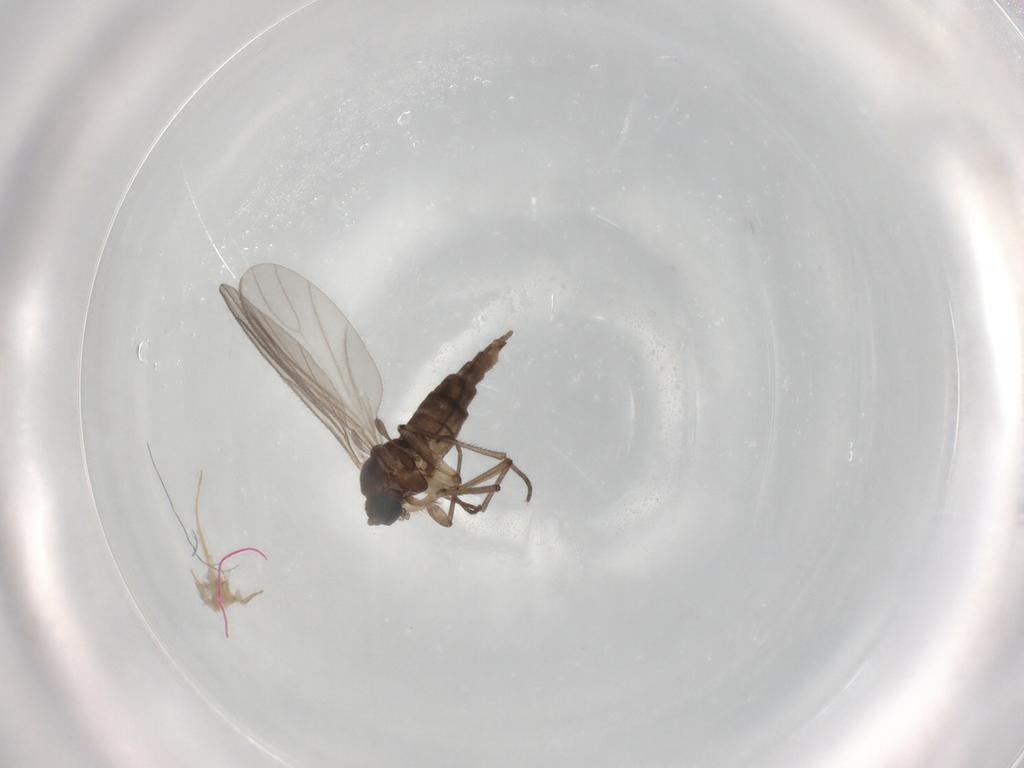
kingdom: Animalia
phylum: Arthropoda
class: Insecta
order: Diptera
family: Sciaridae
